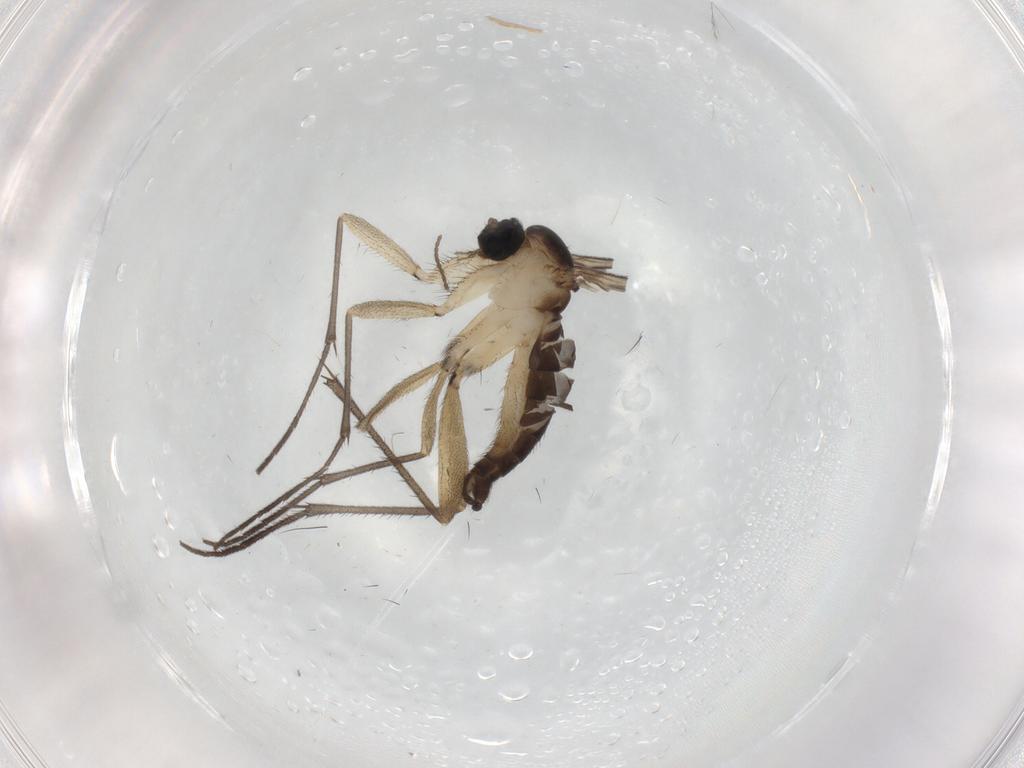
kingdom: Animalia
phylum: Arthropoda
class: Insecta
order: Diptera
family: Sciaridae
